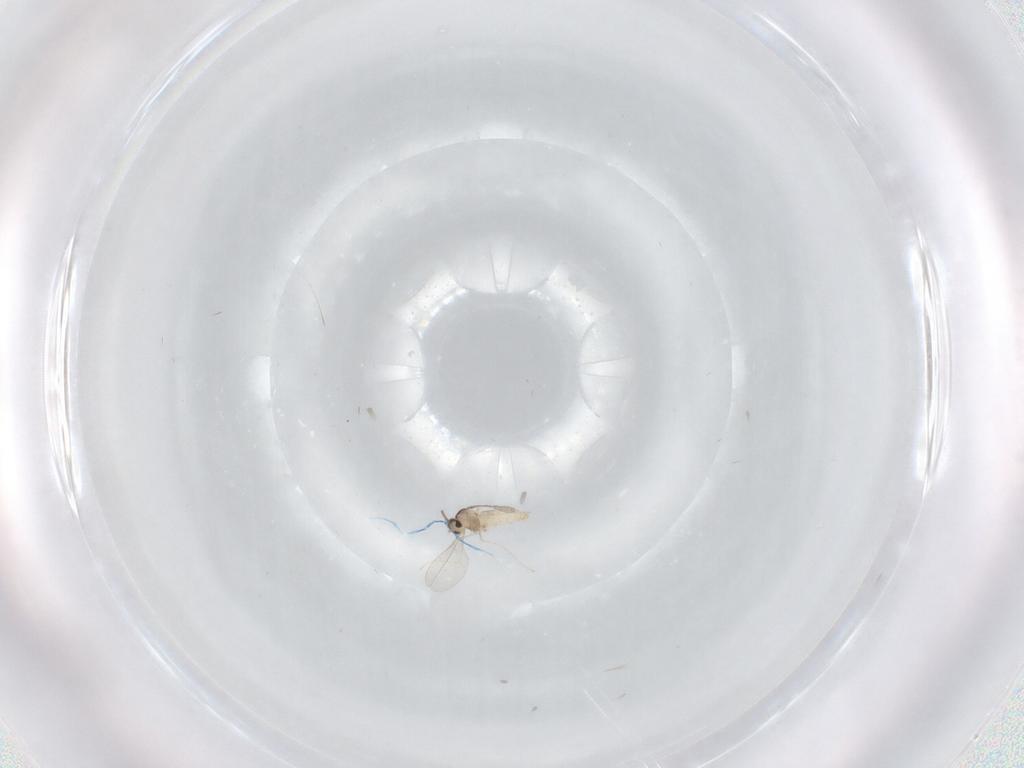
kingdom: Animalia
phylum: Arthropoda
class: Insecta
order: Diptera
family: Cecidomyiidae
